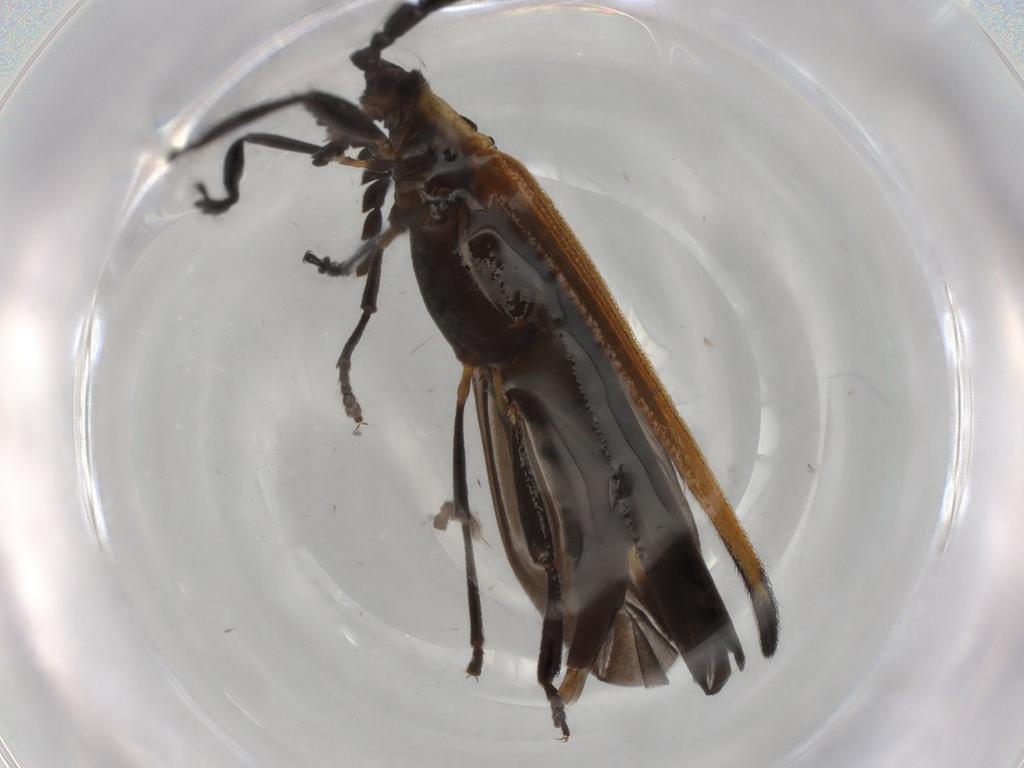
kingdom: Animalia
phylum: Arthropoda
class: Insecta
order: Coleoptera
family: Lycidae
